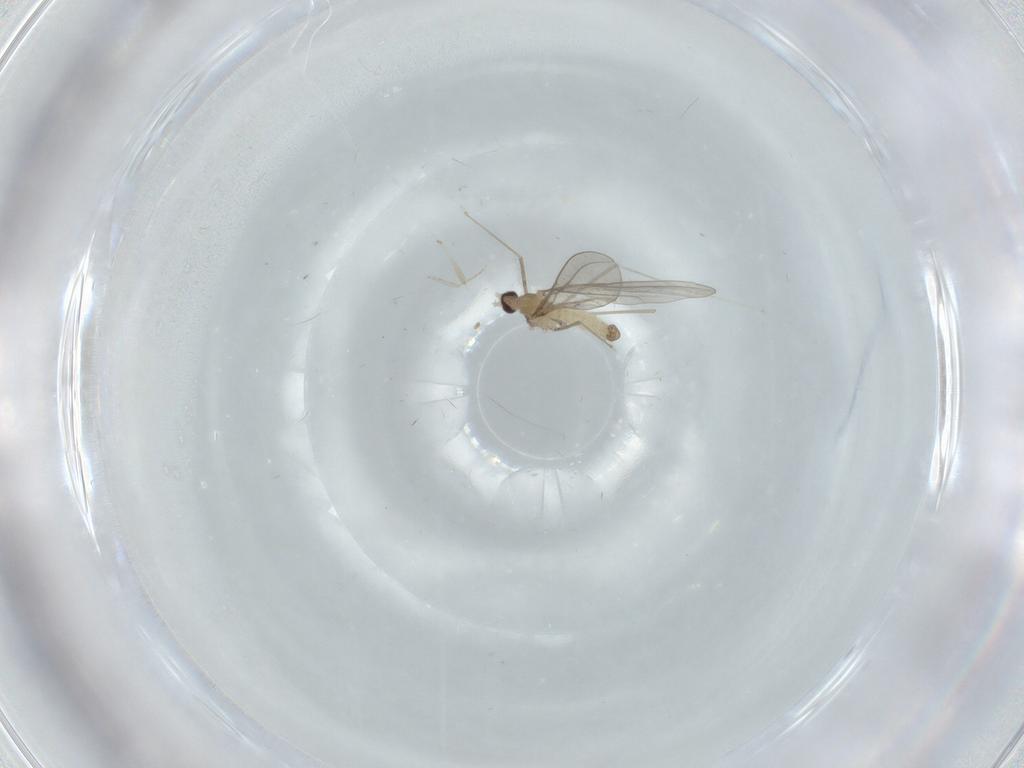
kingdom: Animalia
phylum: Arthropoda
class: Insecta
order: Diptera
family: Cecidomyiidae
